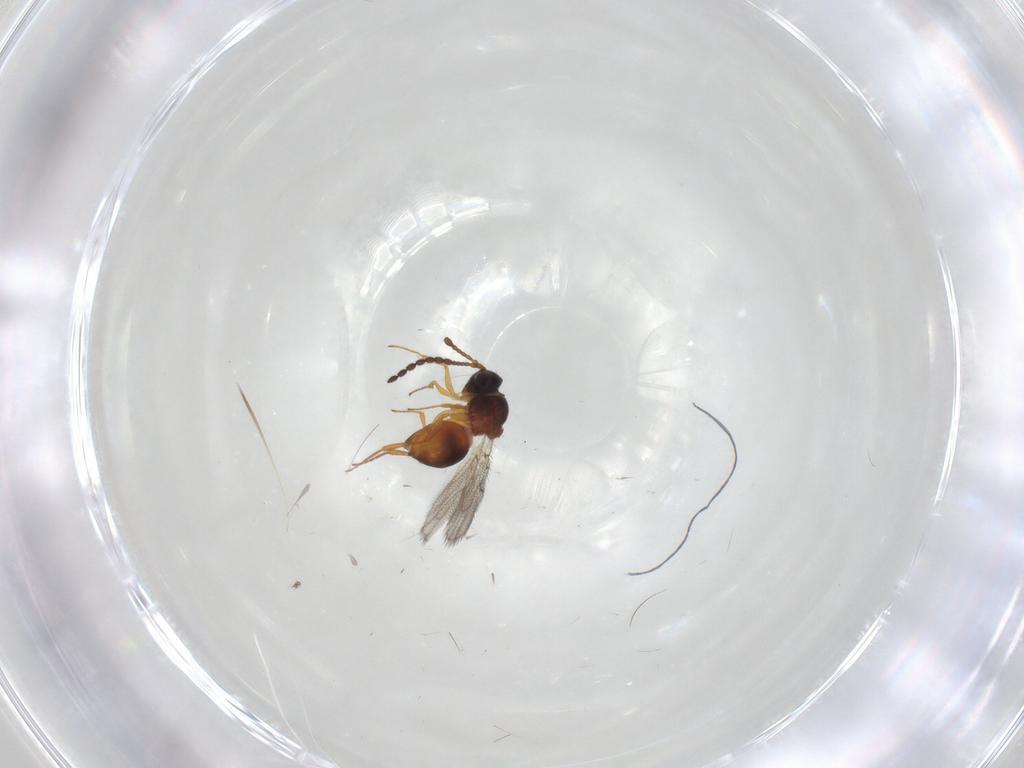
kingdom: Animalia
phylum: Arthropoda
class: Insecta
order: Hymenoptera
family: Figitidae
